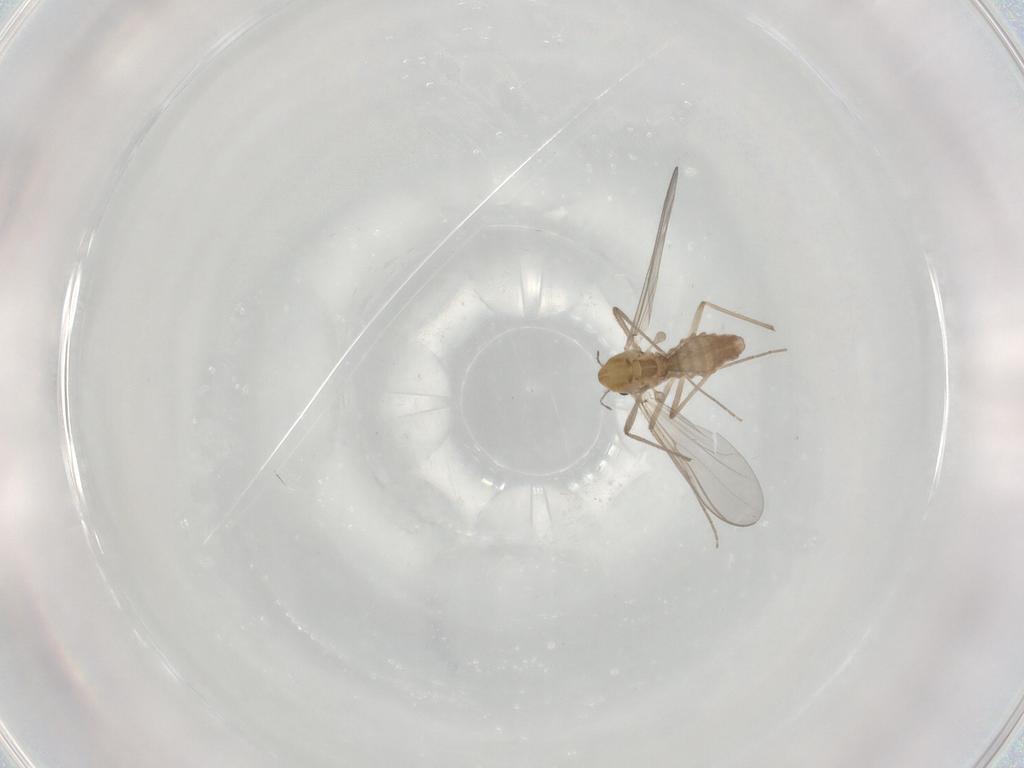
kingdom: Animalia
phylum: Arthropoda
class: Insecta
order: Diptera
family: Chironomidae
